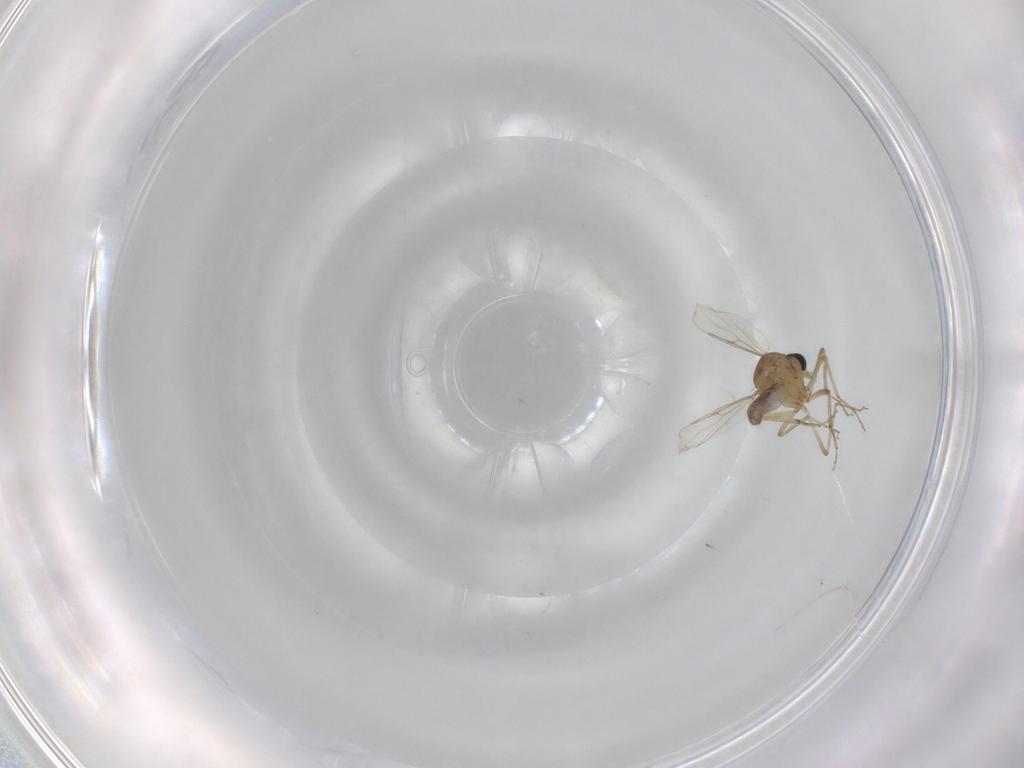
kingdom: Animalia
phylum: Arthropoda
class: Insecta
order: Diptera
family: Ceratopogonidae
